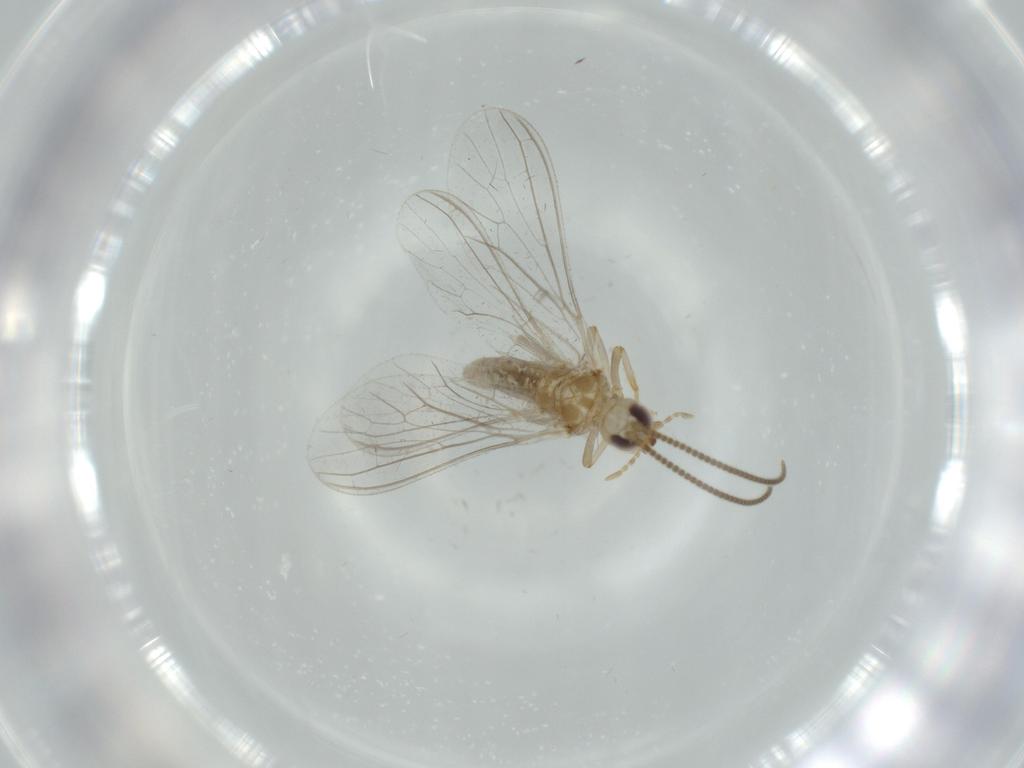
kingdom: Animalia
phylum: Arthropoda
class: Insecta
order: Neuroptera
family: Coniopterygidae
